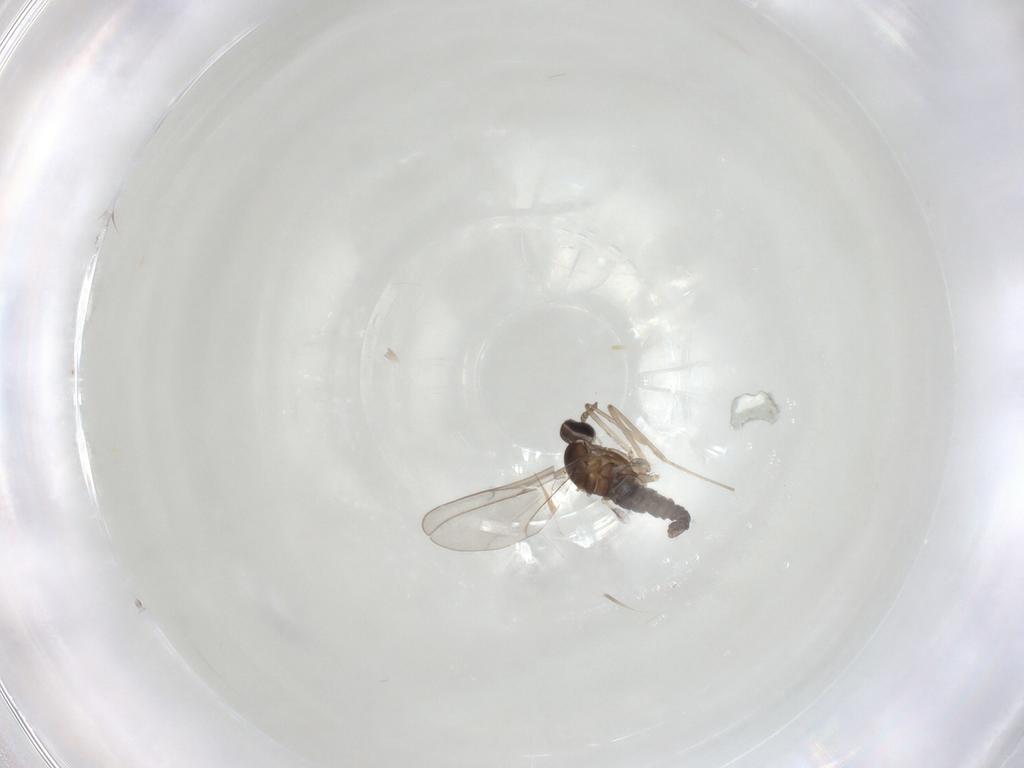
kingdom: Animalia
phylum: Arthropoda
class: Insecta
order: Diptera
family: Cecidomyiidae
